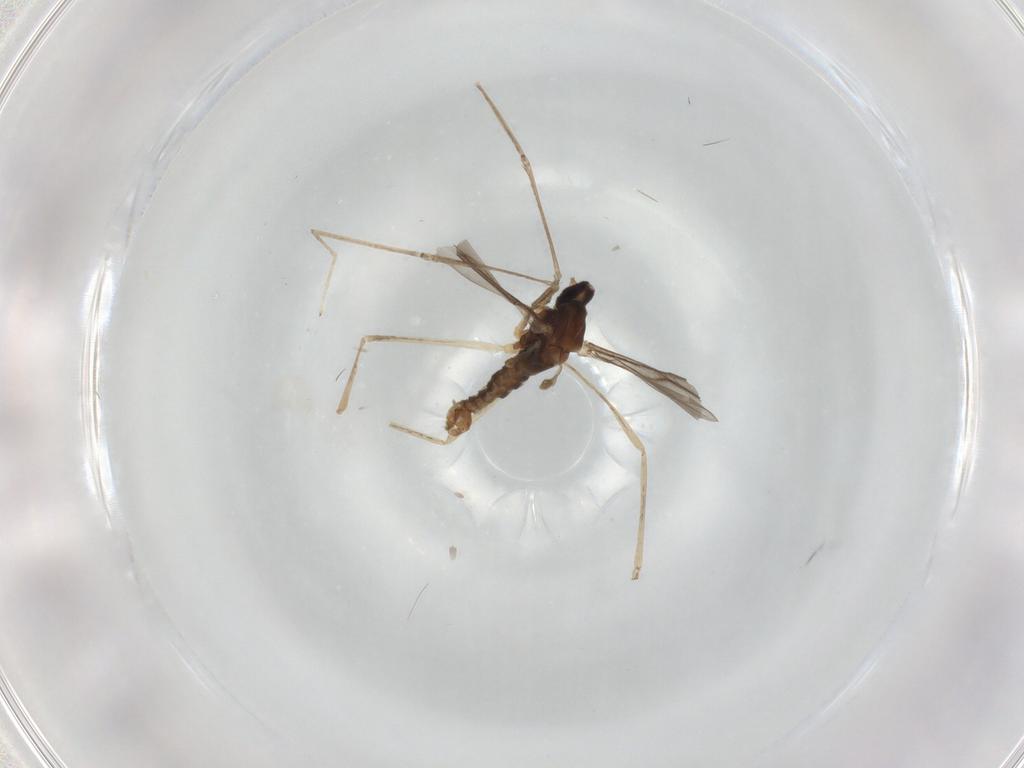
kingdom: Animalia
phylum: Arthropoda
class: Insecta
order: Diptera
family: Cecidomyiidae
